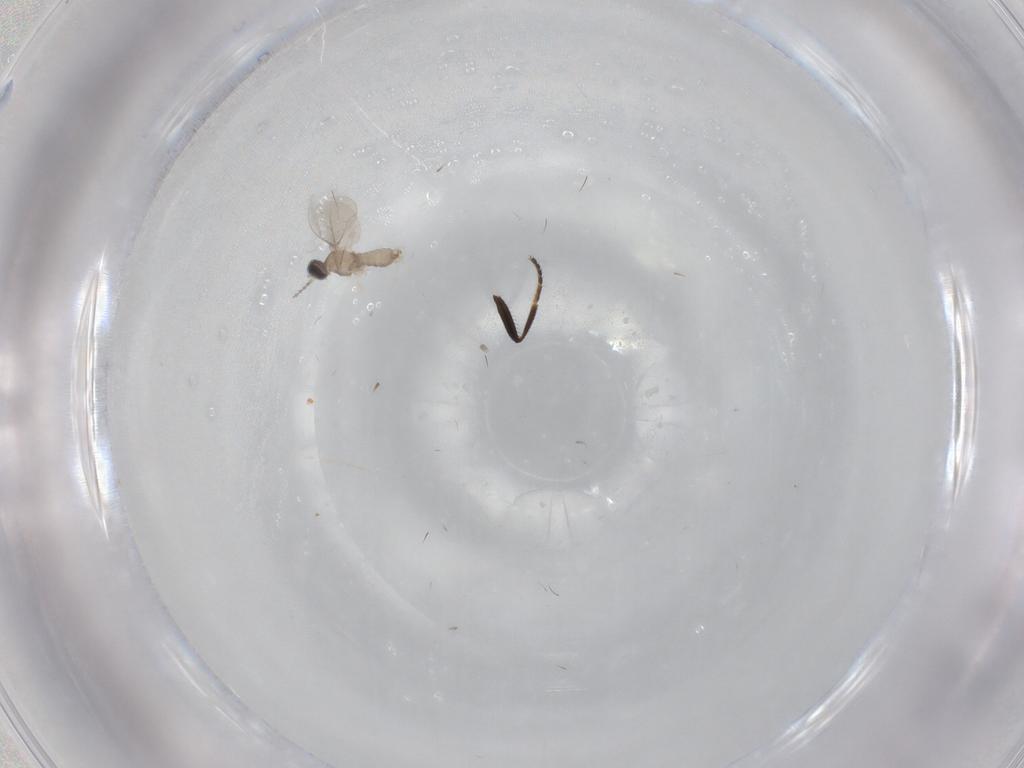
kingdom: Animalia
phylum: Arthropoda
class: Insecta
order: Diptera
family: Cecidomyiidae
